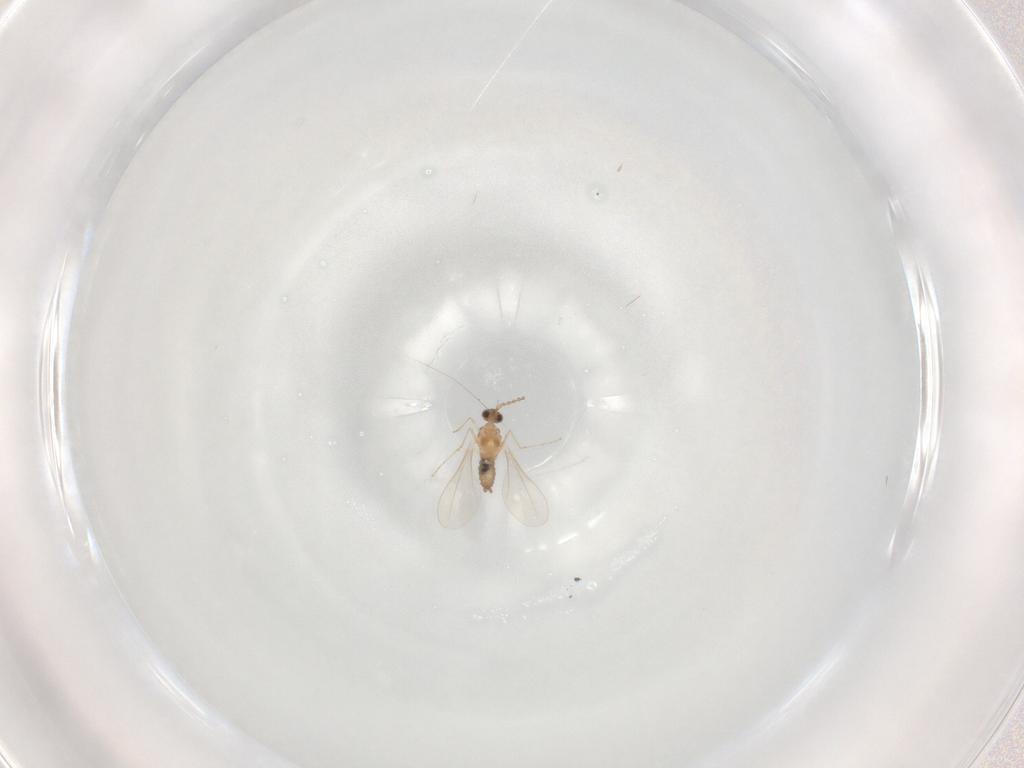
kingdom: Animalia
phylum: Arthropoda
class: Insecta
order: Diptera
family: Cecidomyiidae
